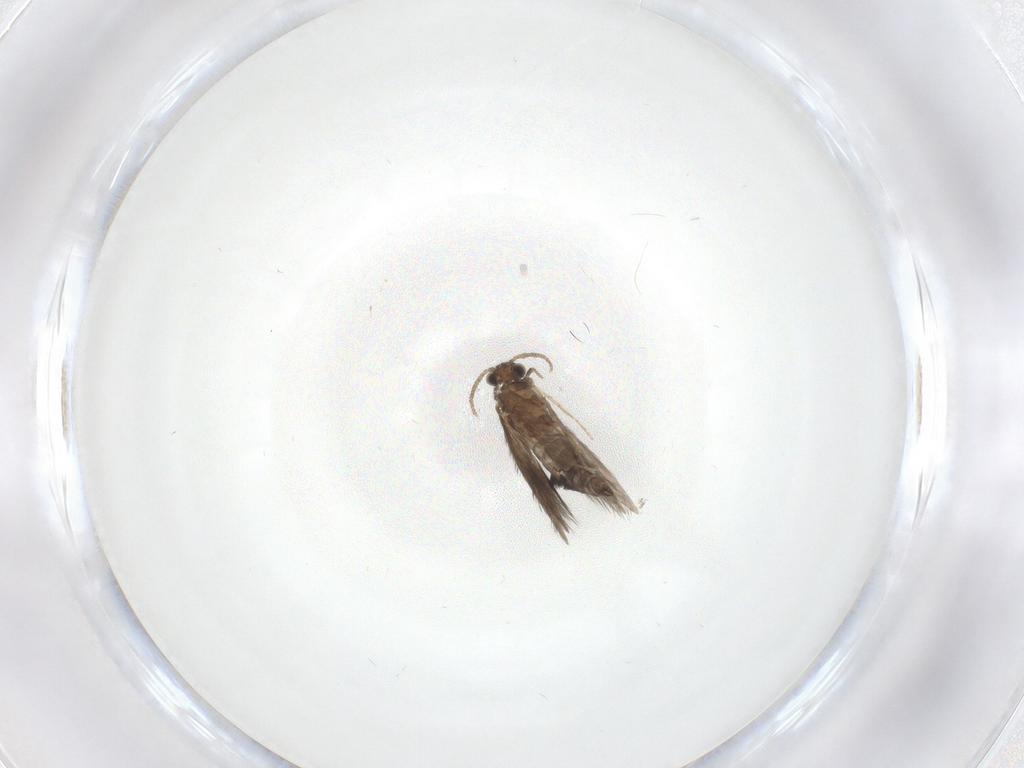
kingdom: Animalia
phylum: Arthropoda
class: Insecta
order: Trichoptera
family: Hydroptilidae
